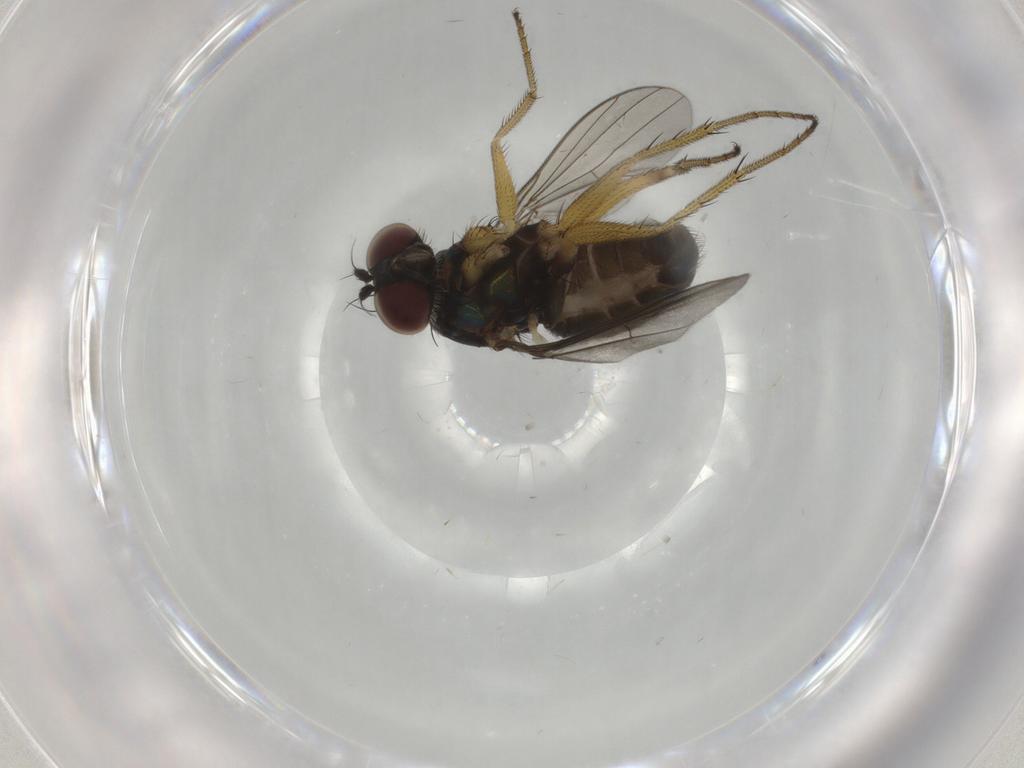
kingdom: Animalia
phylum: Arthropoda
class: Insecta
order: Diptera
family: Dolichopodidae
